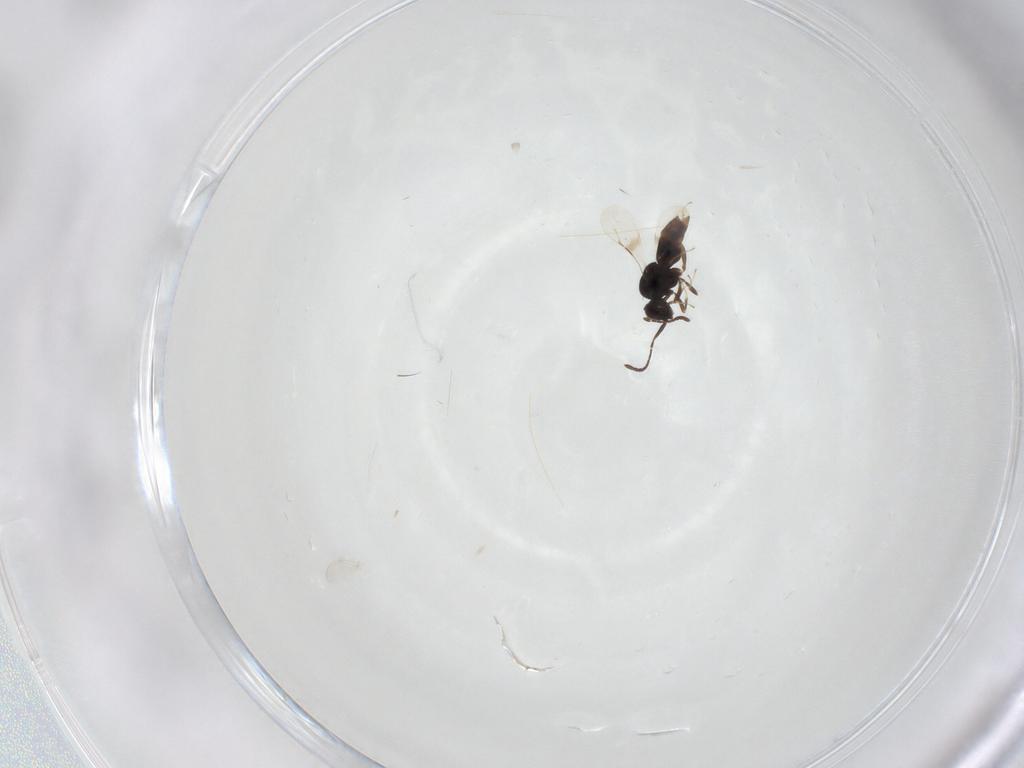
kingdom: Animalia
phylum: Arthropoda
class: Insecta
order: Hymenoptera
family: Ceraphronidae
